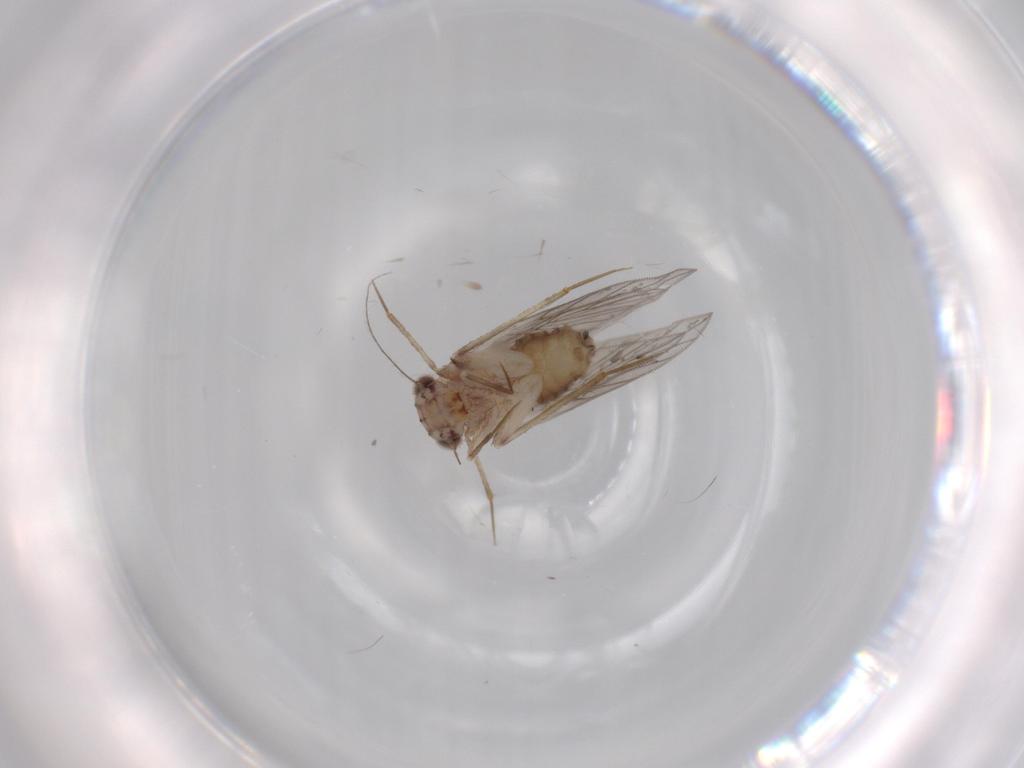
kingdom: Animalia
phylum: Arthropoda
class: Insecta
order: Psocodea
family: Lepidopsocidae
